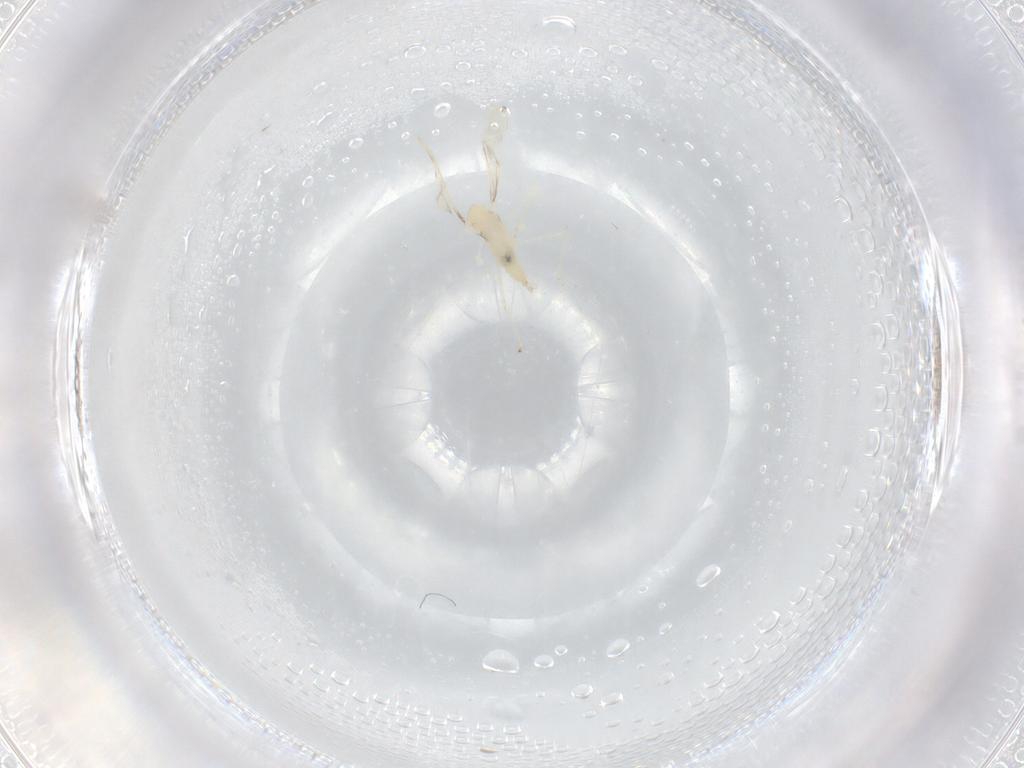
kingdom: Animalia
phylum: Arthropoda
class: Insecta
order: Diptera
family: Cecidomyiidae
